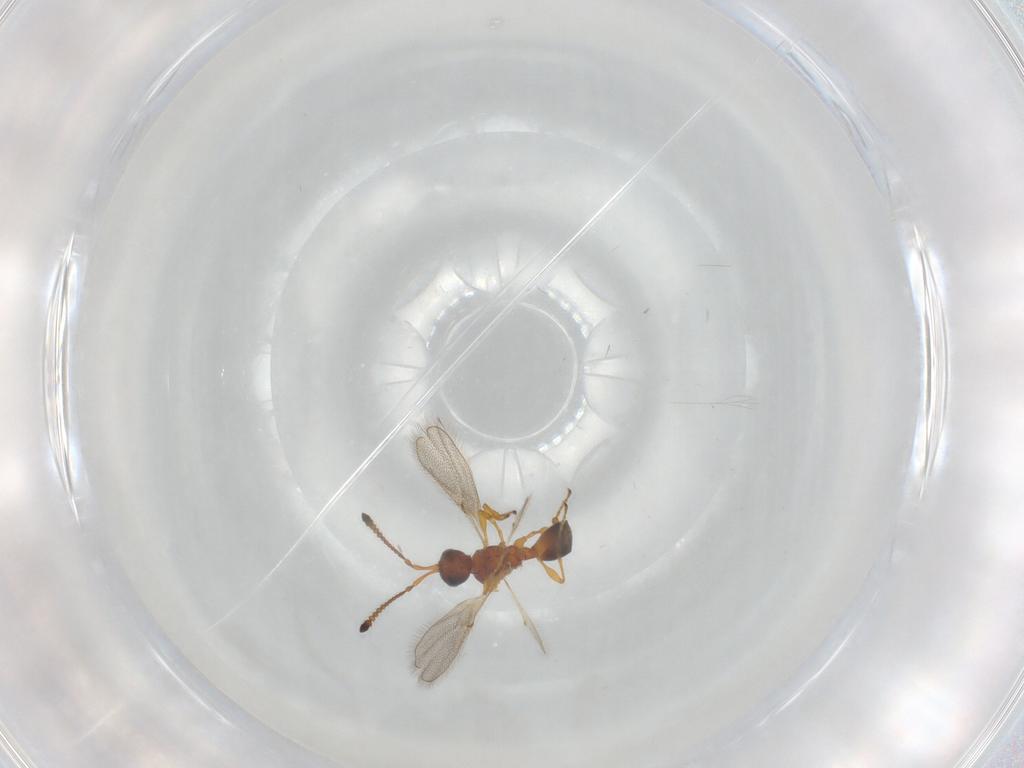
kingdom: Animalia
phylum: Arthropoda
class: Insecta
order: Hymenoptera
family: Diapriidae
